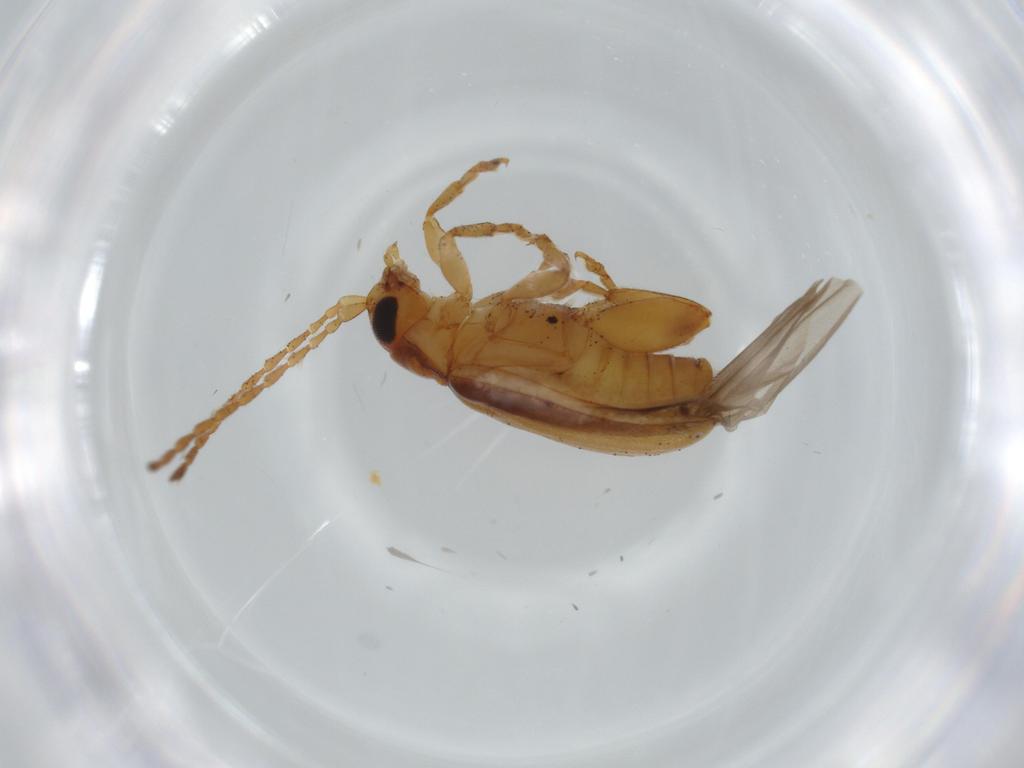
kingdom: Animalia
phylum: Arthropoda
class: Insecta
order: Coleoptera
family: Chrysomelidae
